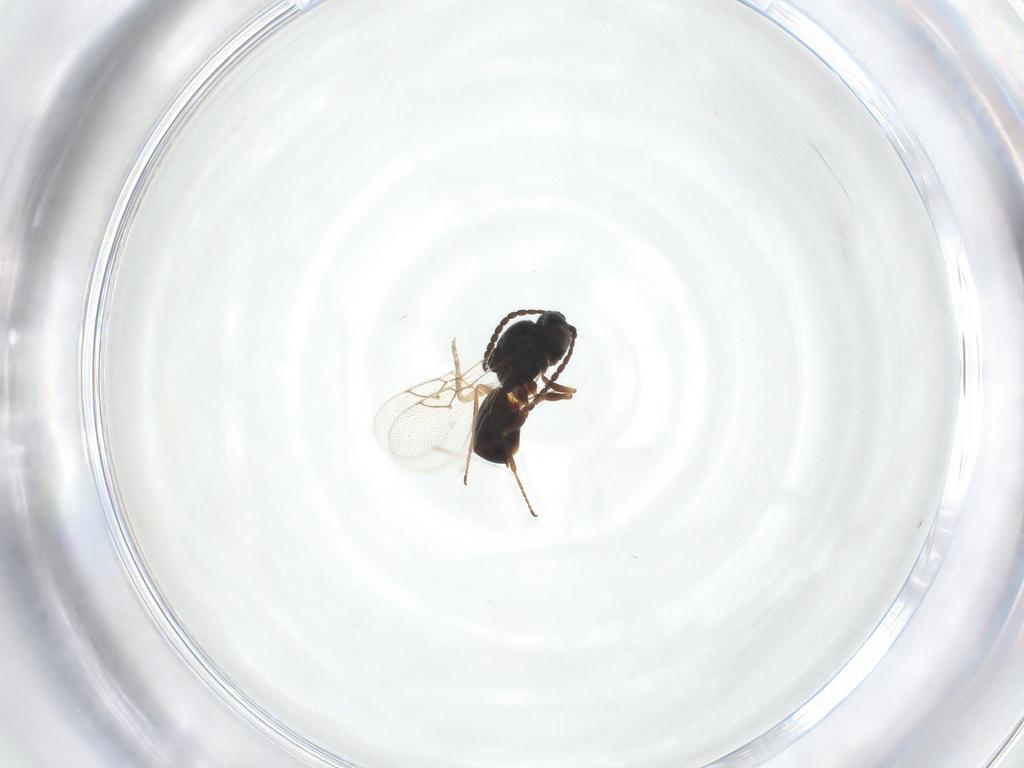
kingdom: Animalia
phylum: Arthropoda
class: Insecta
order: Hymenoptera
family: Figitidae
